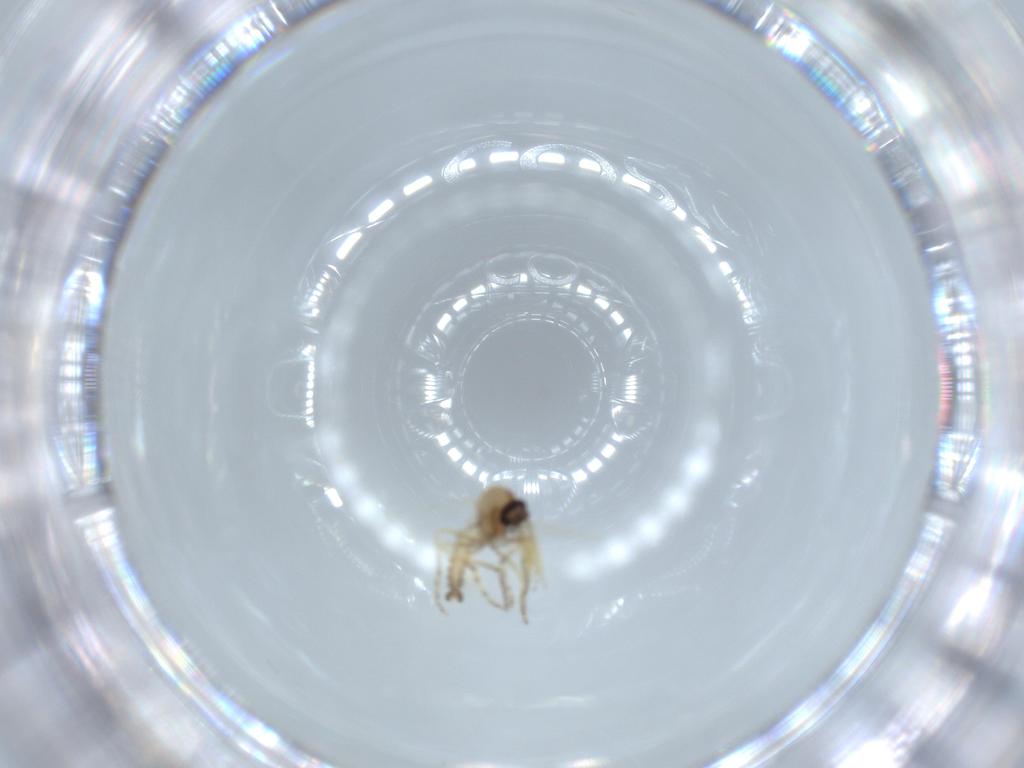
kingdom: Animalia
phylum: Arthropoda
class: Insecta
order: Diptera
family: Ceratopogonidae
